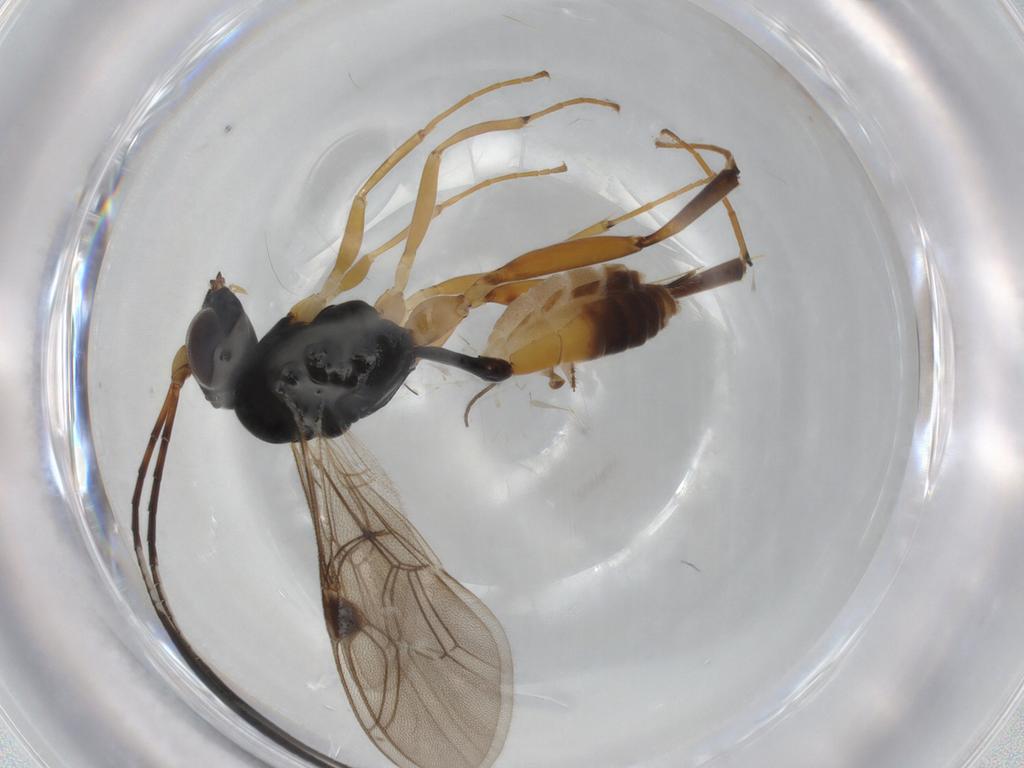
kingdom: Animalia
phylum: Arthropoda
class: Insecta
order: Hymenoptera
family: Ichneumonidae
